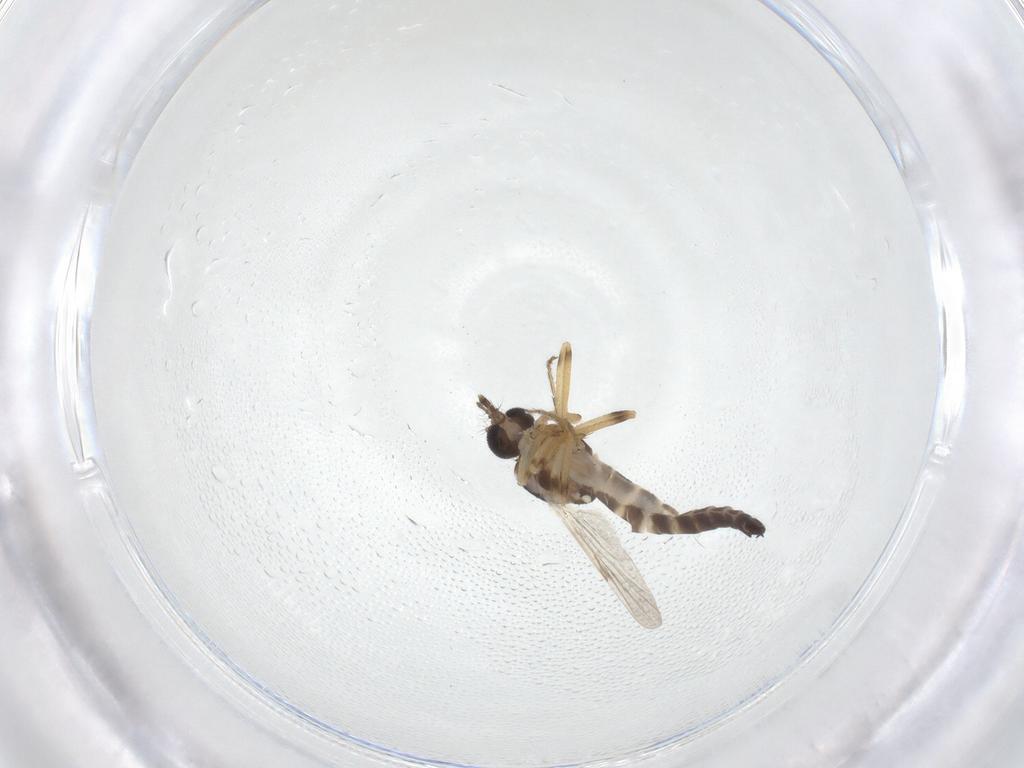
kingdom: Animalia
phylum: Arthropoda
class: Insecta
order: Diptera
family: Ceratopogonidae
